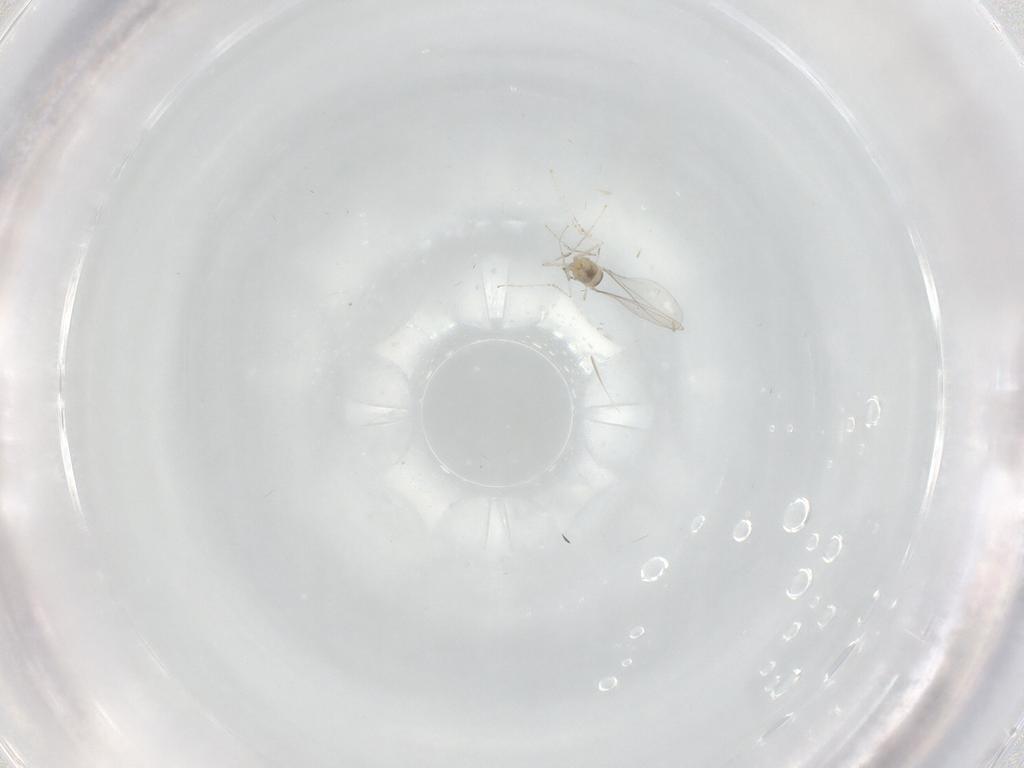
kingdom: Animalia
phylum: Arthropoda
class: Insecta
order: Diptera
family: Cecidomyiidae
